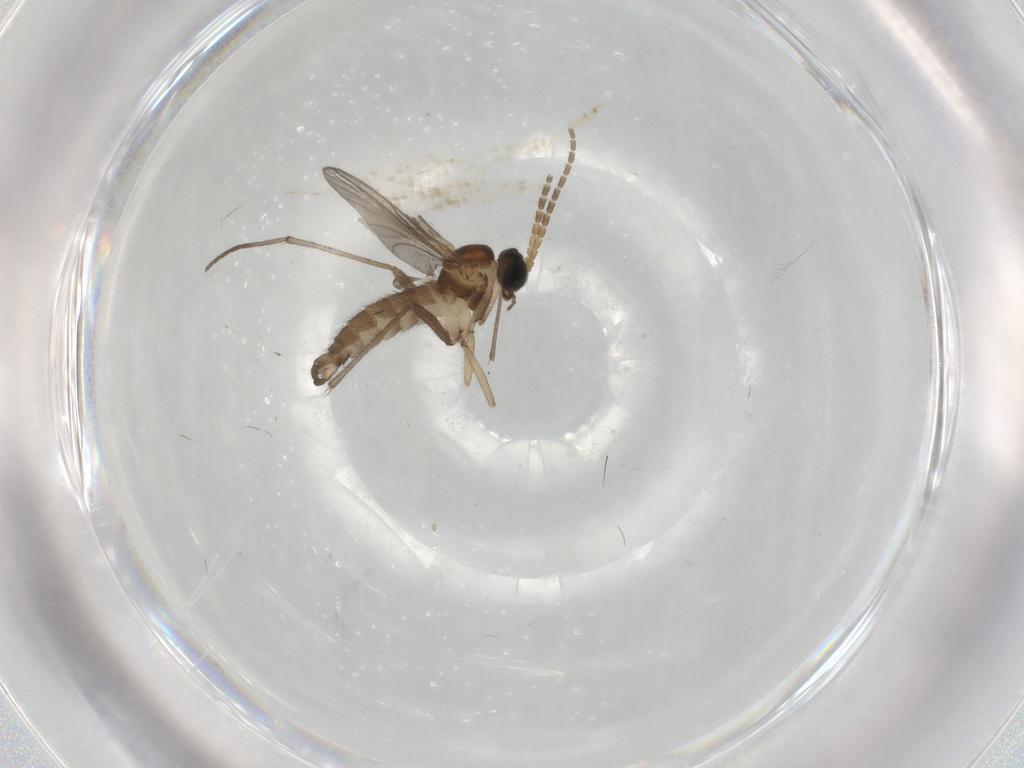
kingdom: Animalia
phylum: Arthropoda
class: Insecta
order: Diptera
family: Sciaridae
